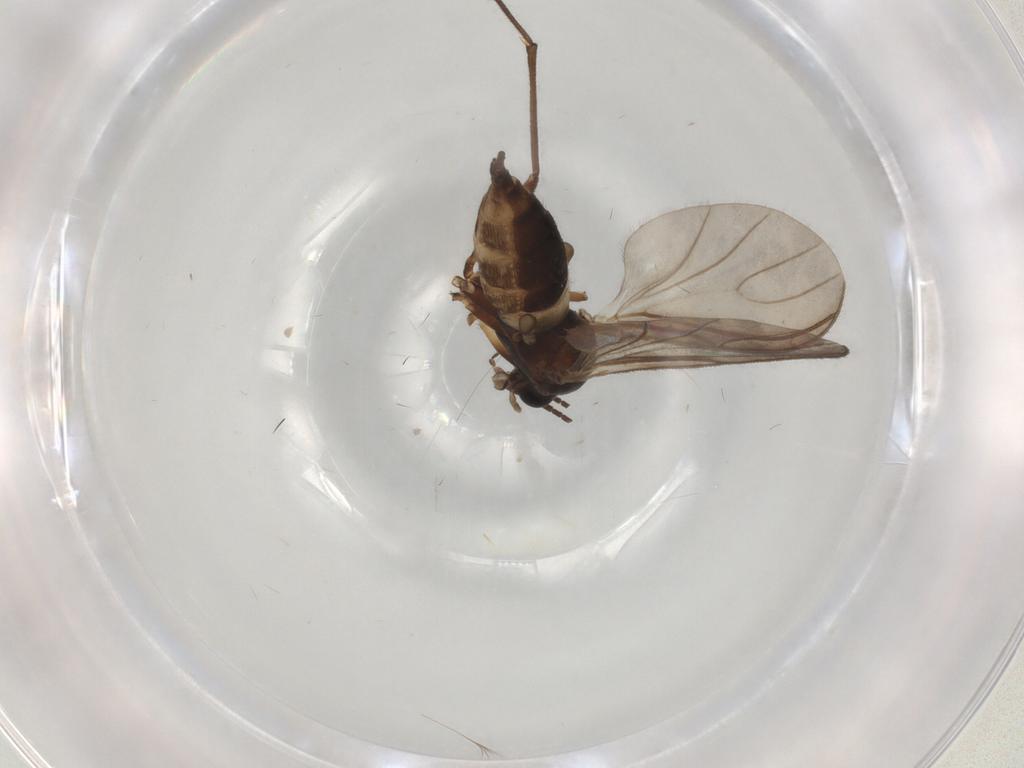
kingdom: Animalia
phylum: Arthropoda
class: Insecta
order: Diptera
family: Sciaridae
